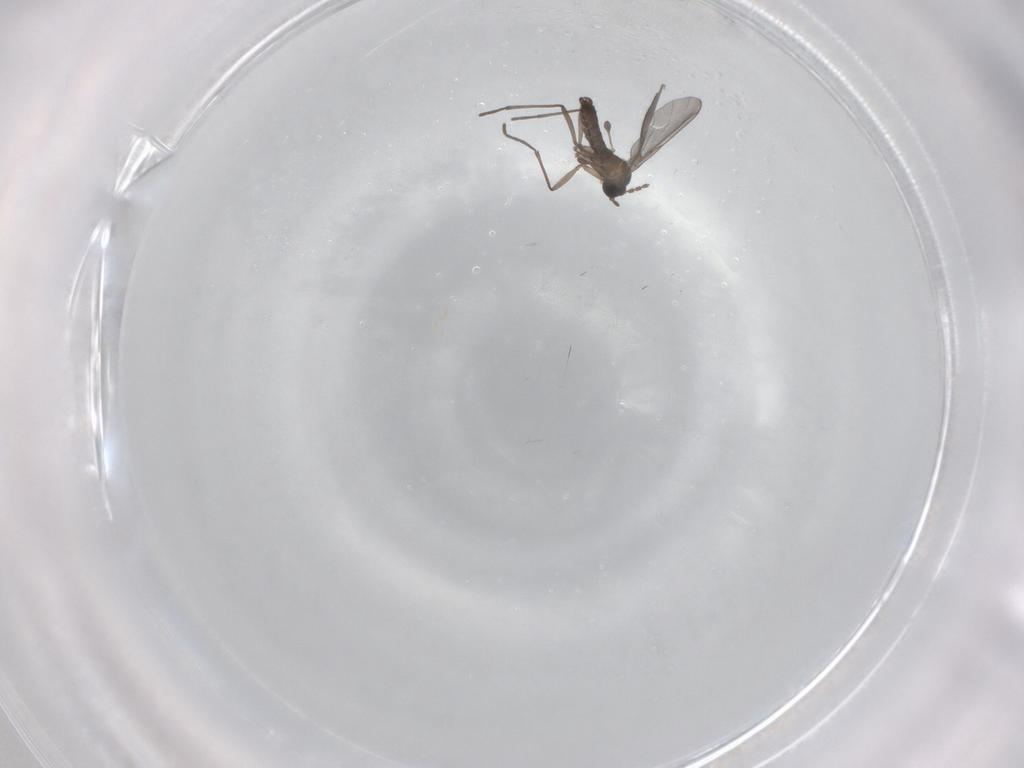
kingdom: Animalia
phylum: Arthropoda
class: Insecta
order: Diptera
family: Sciaridae
